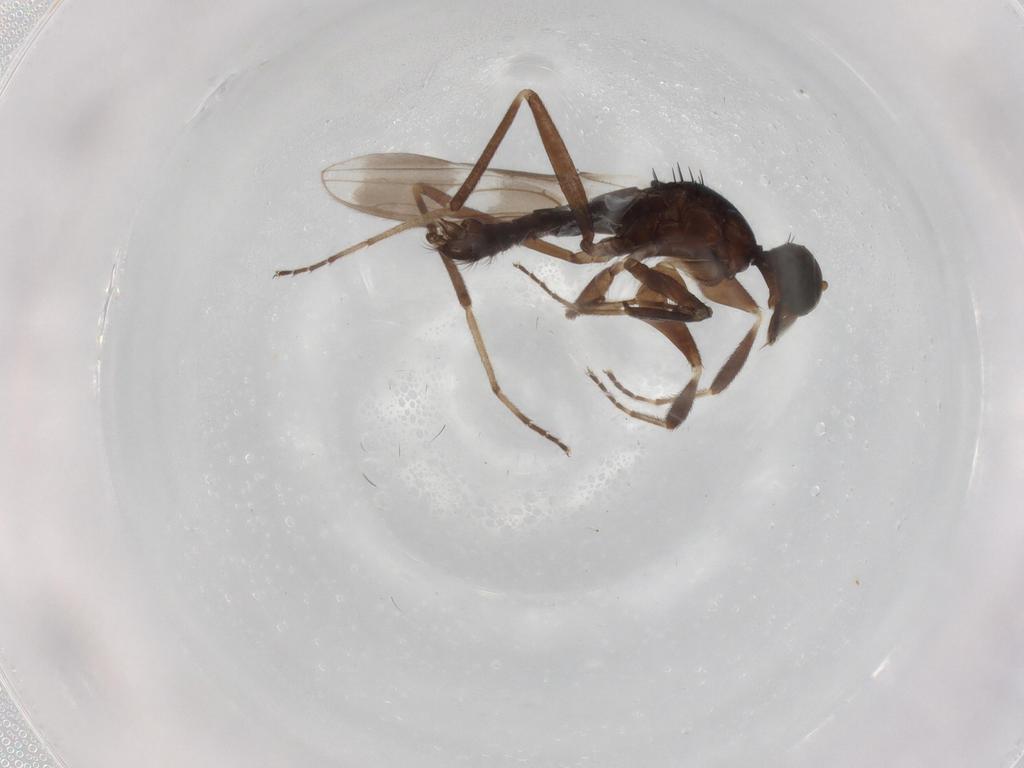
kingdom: Animalia
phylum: Arthropoda
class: Insecta
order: Diptera
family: Hybotidae
